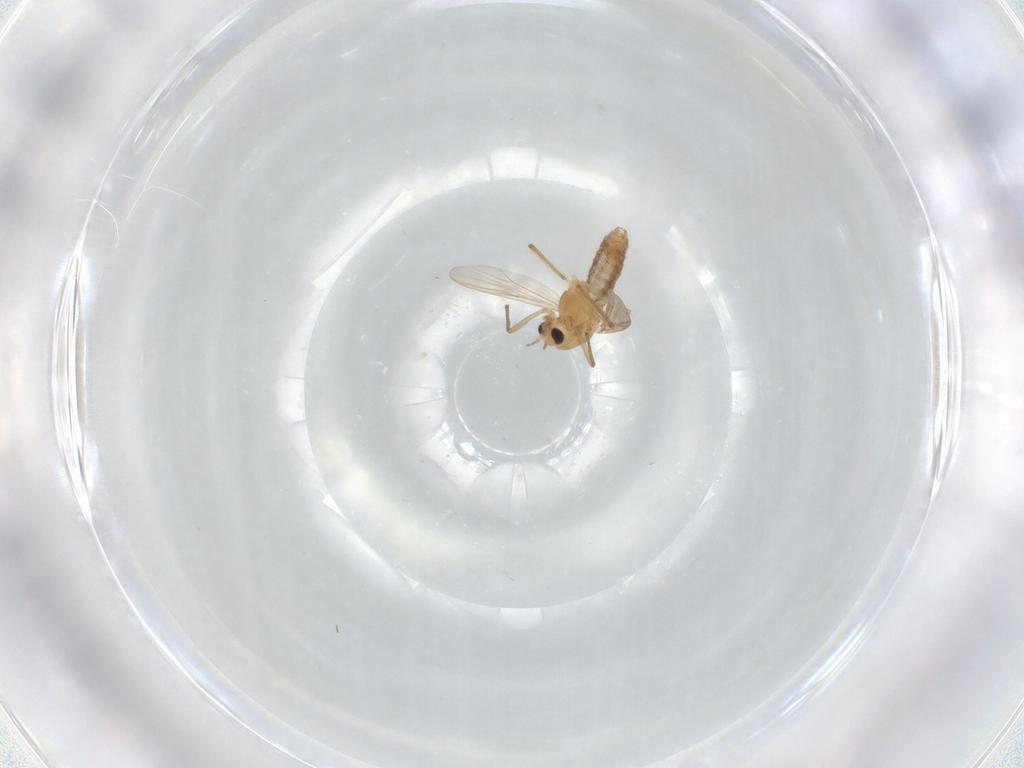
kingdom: Animalia
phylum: Arthropoda
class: Insecta
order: Diptera
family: Chironomidae
